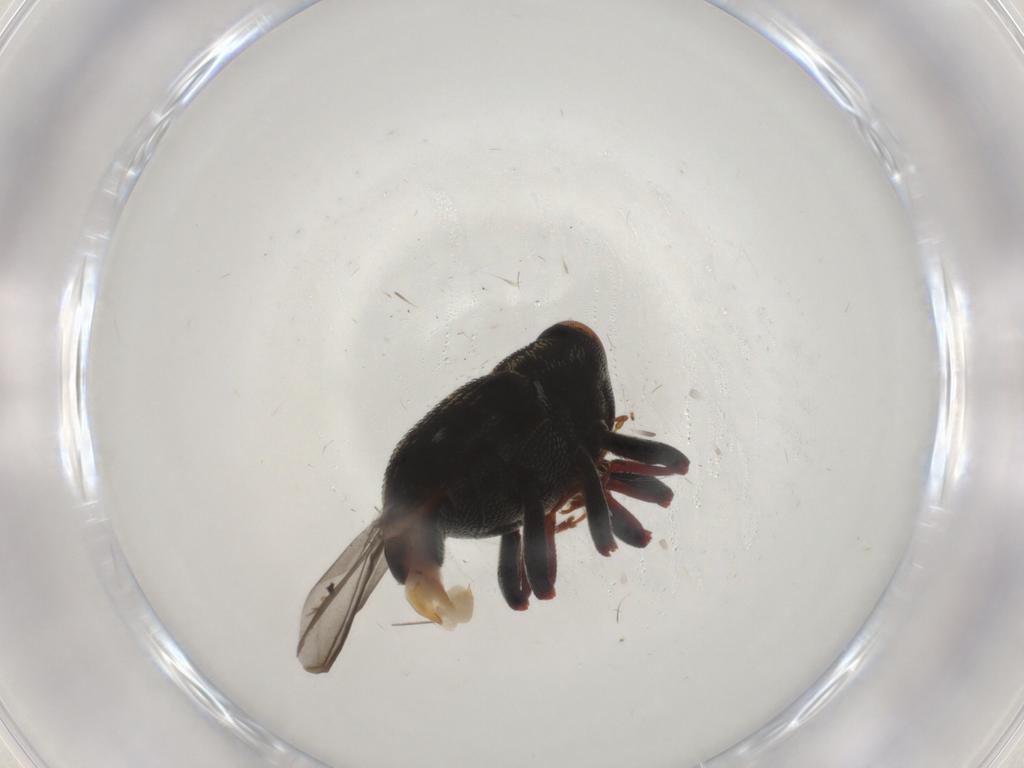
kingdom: Animalia
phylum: Arthropoda
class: Insecta
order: Coleoptera
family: Curculionidae
